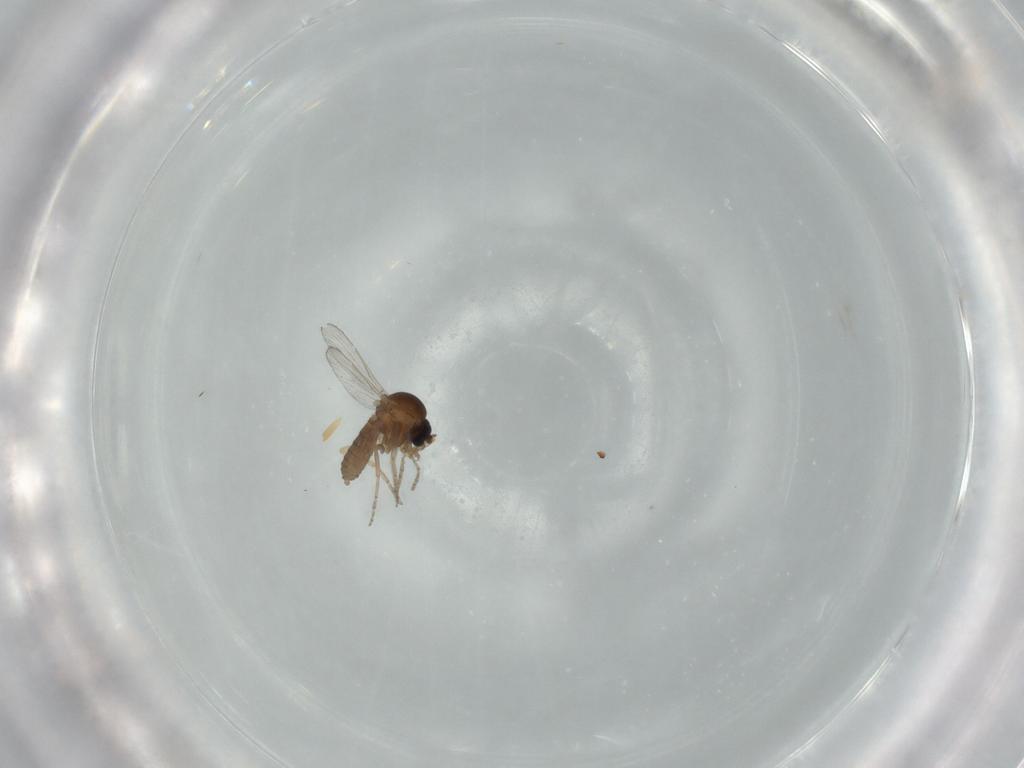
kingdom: Animalia
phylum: Arthropoda
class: Insecta
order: Diptera
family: Ceratopogonidae
